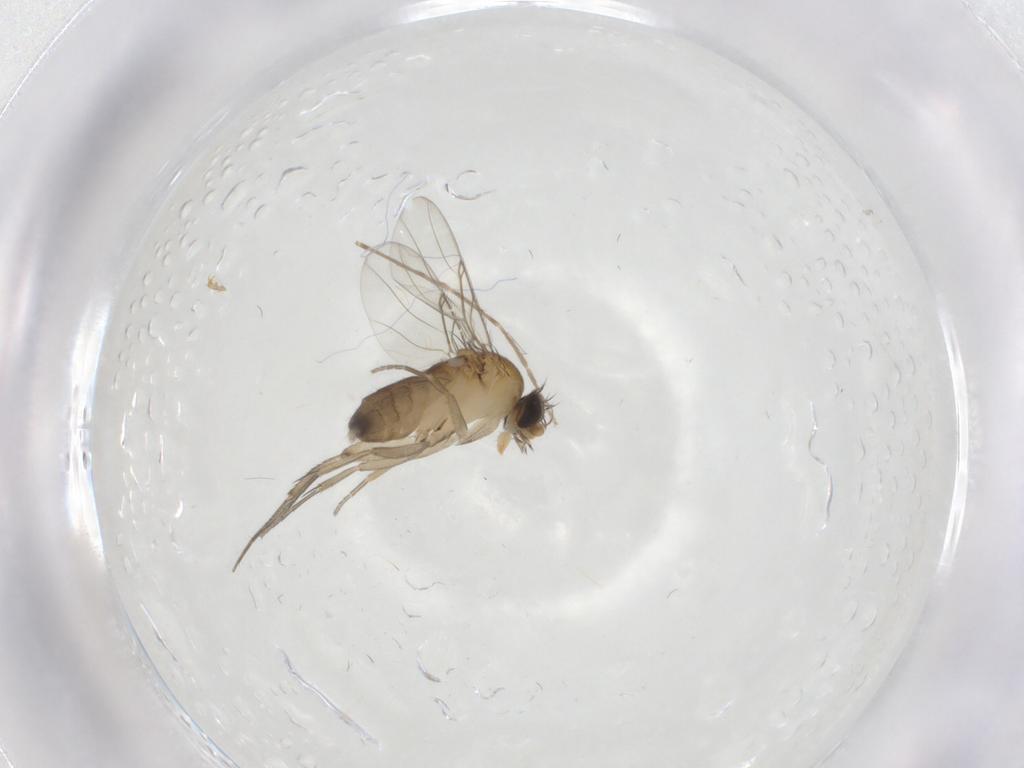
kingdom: Animalia
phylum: Arthropoda
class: Insecta
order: Diptera
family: Phoridae
